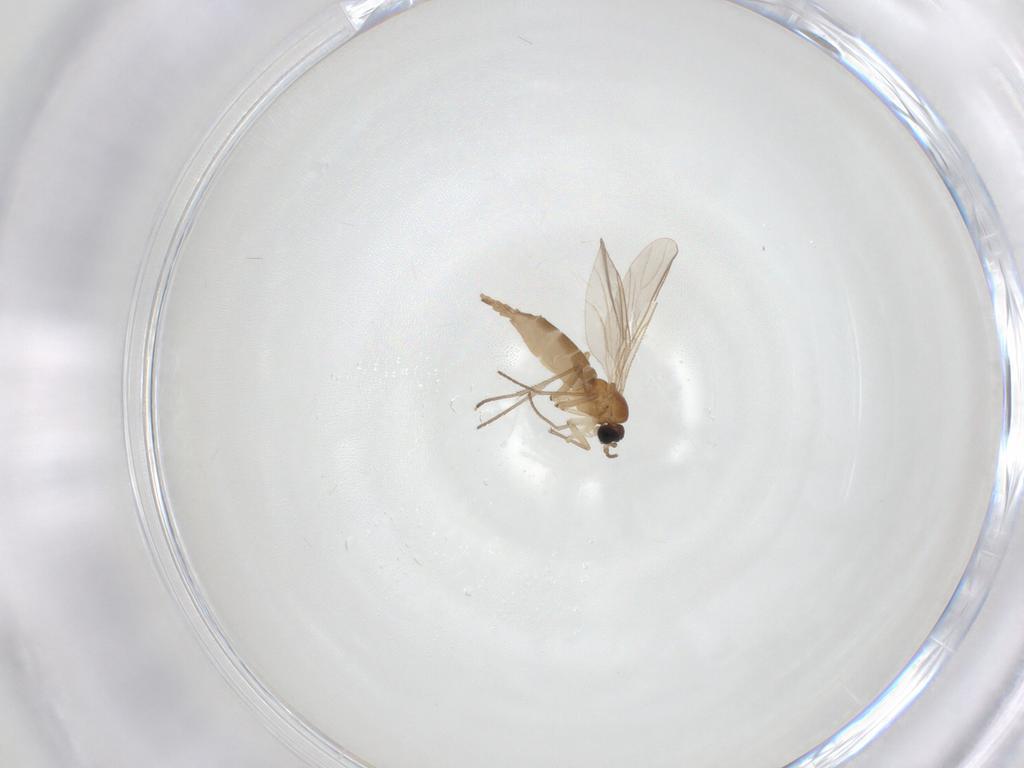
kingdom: Animalia
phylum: Arthropoda
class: Insecta
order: Diptera
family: Sciaridae
